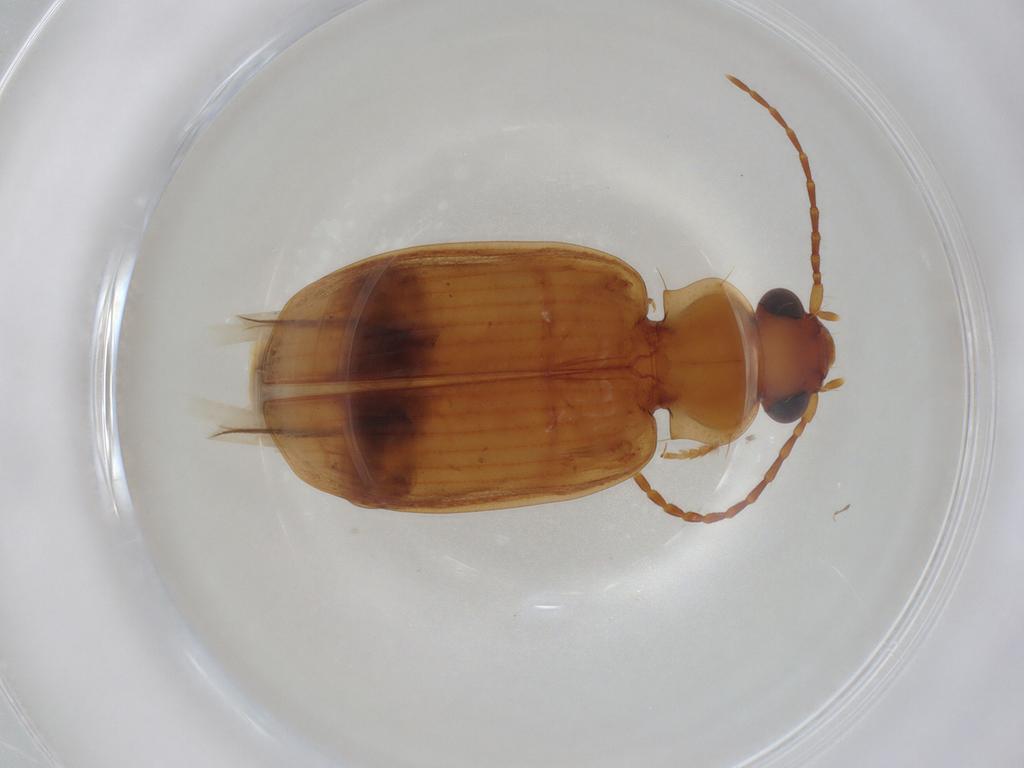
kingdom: Animalia
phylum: Arthropoda
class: Insecta
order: Coleoptera
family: Carabidae
